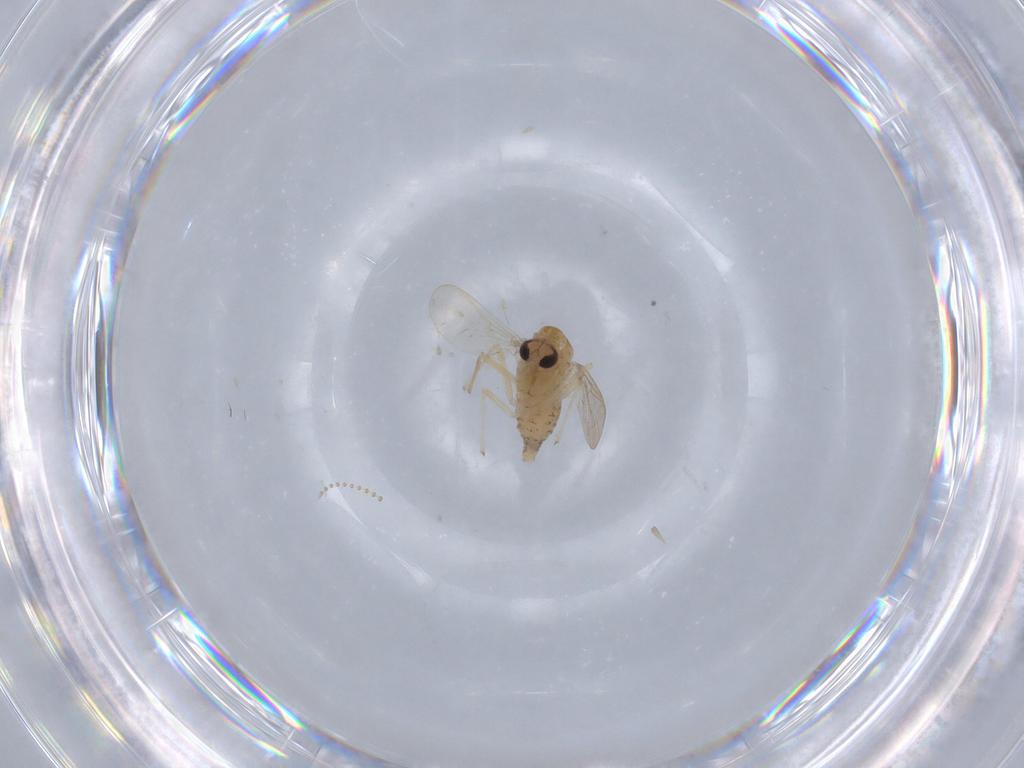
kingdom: Animalia
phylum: Arthropoda
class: Insecta
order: Diptera
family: Chironomidae
